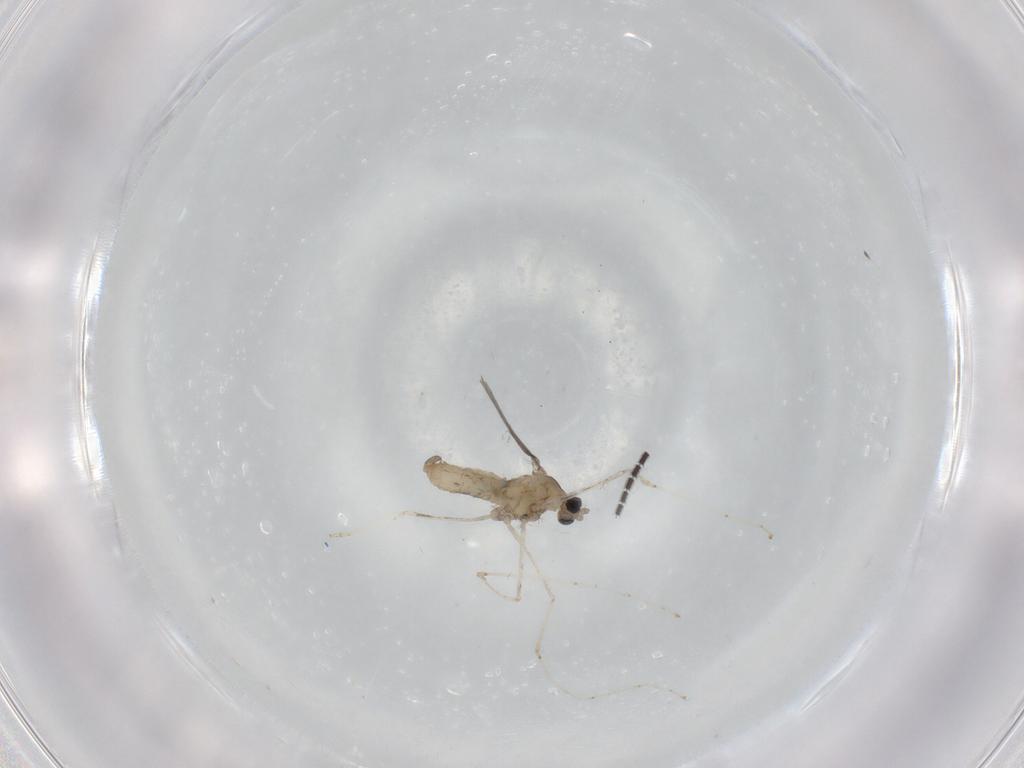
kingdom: Animalia
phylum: Arthropoda
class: Insecta
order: Diptera
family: Cecidomyiidae
